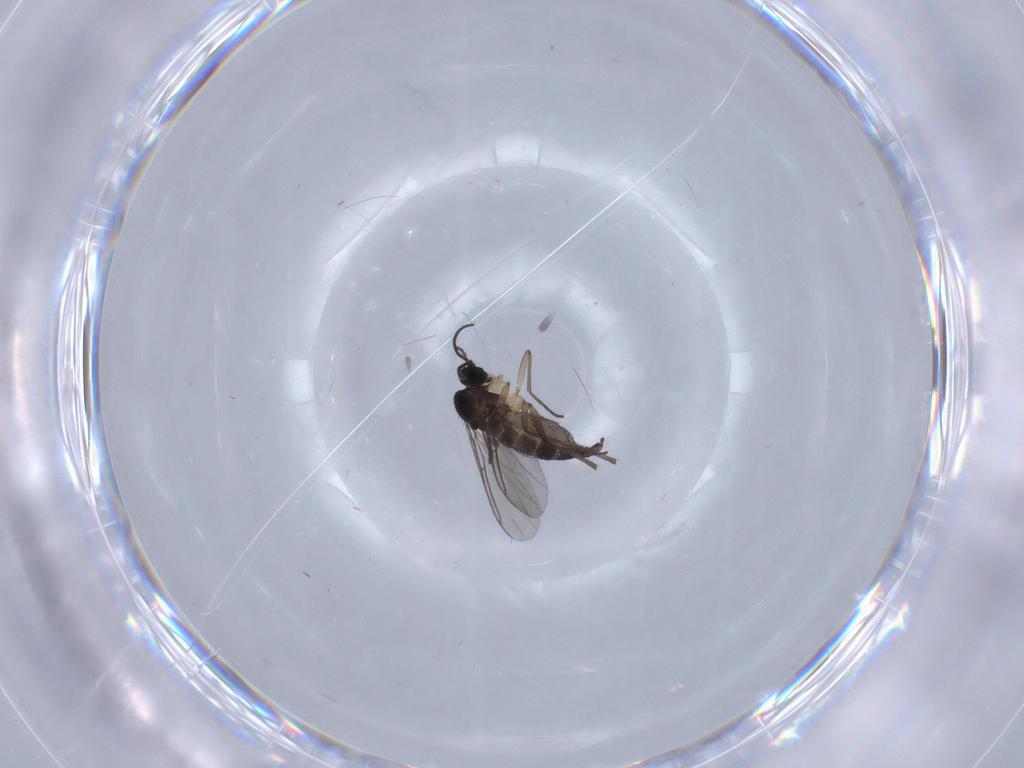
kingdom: Animalia
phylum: Arthropoda
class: Insecta
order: Diptera
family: Sciaridae
